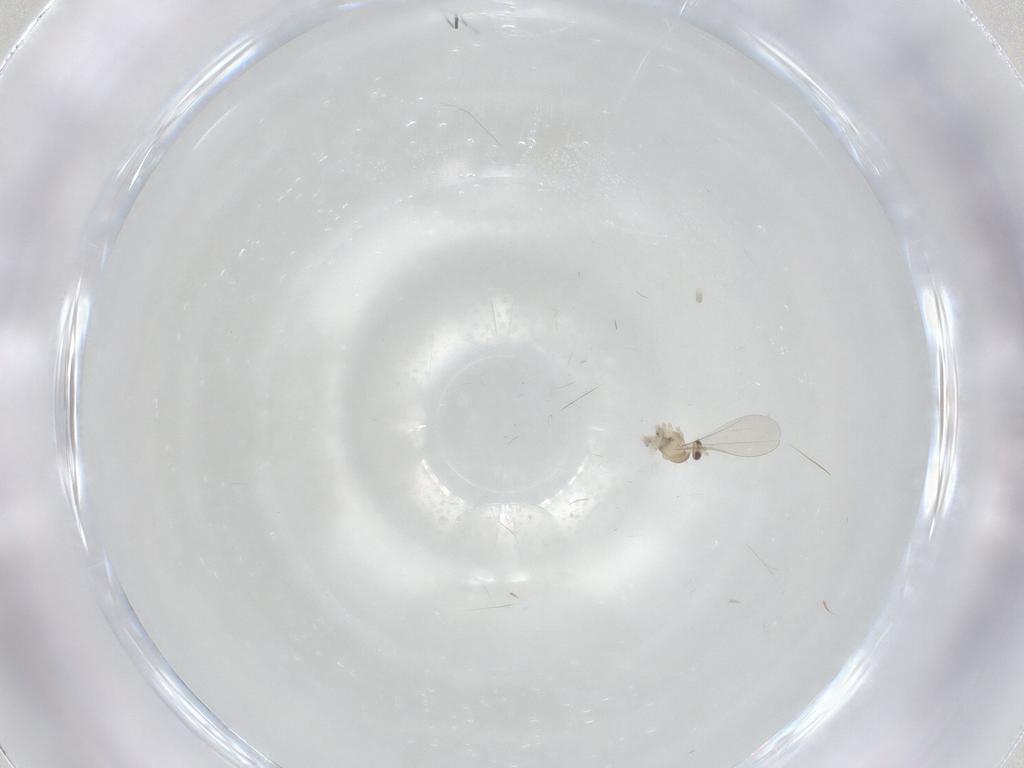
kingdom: Animalia
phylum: Arthropoda
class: Insecta
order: Diptera
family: Cecidomyiidae
